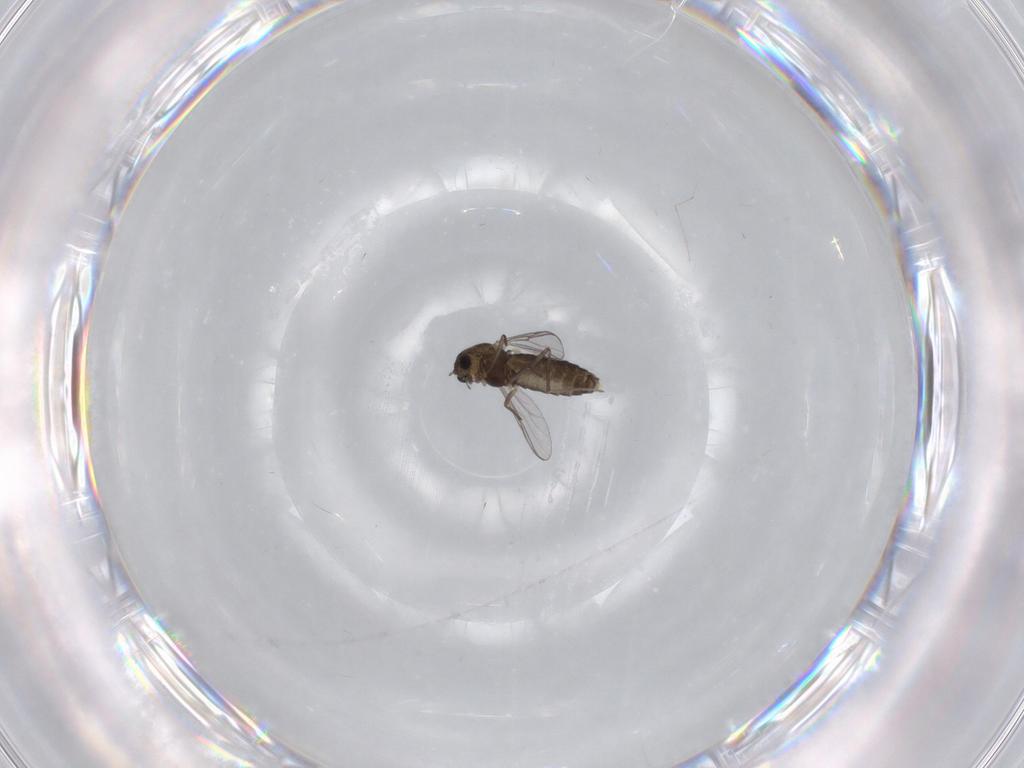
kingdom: Animalia
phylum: Arthropoda
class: Insecta
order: Diptera
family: Chironomidae
